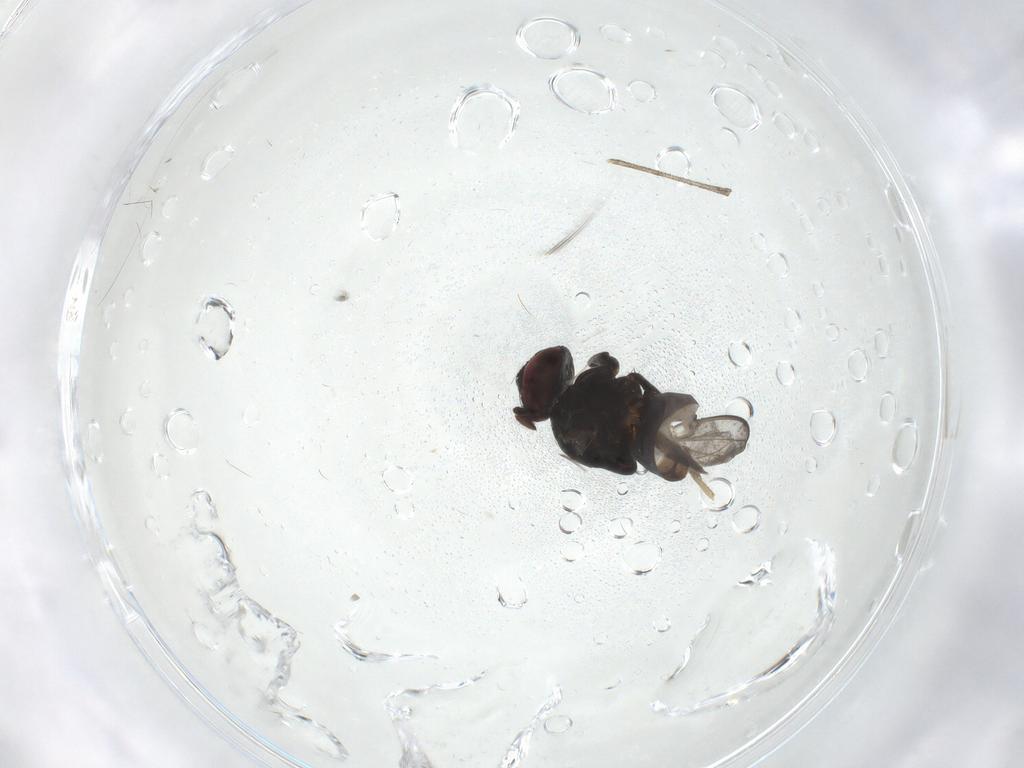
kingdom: Animalia
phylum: Arthropoda
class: Insecta
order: Diptera
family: Milichiidae
